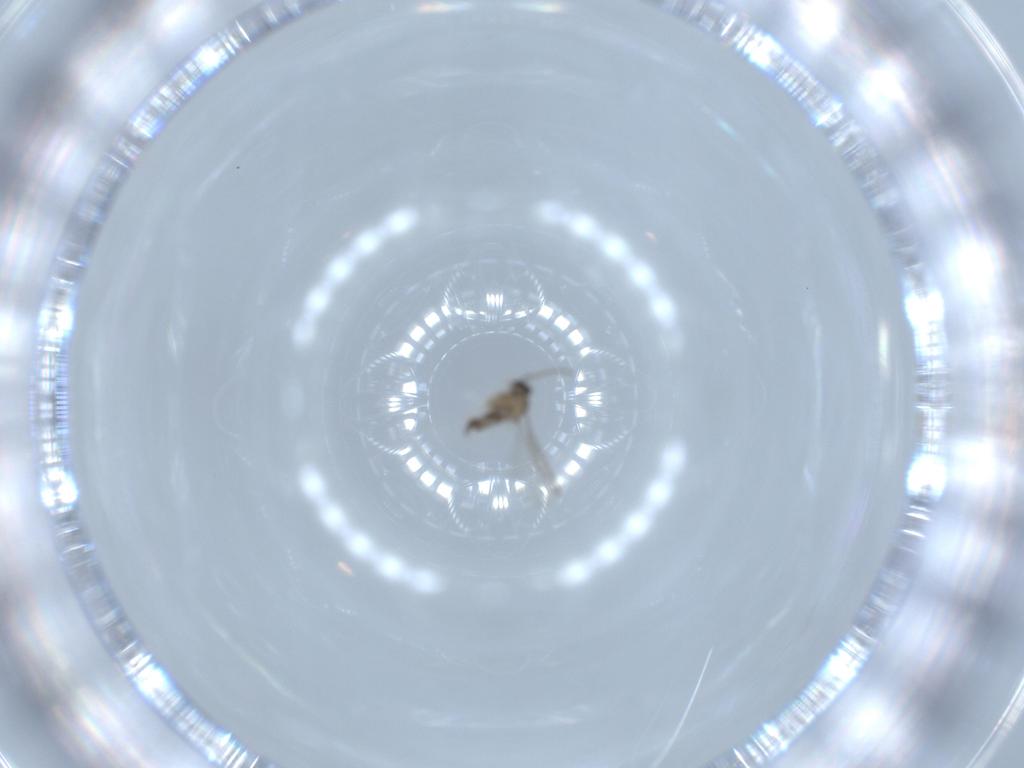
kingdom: Animalia
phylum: Arthropoda
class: Insecta
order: Diptera
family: Cecidomyiidae
